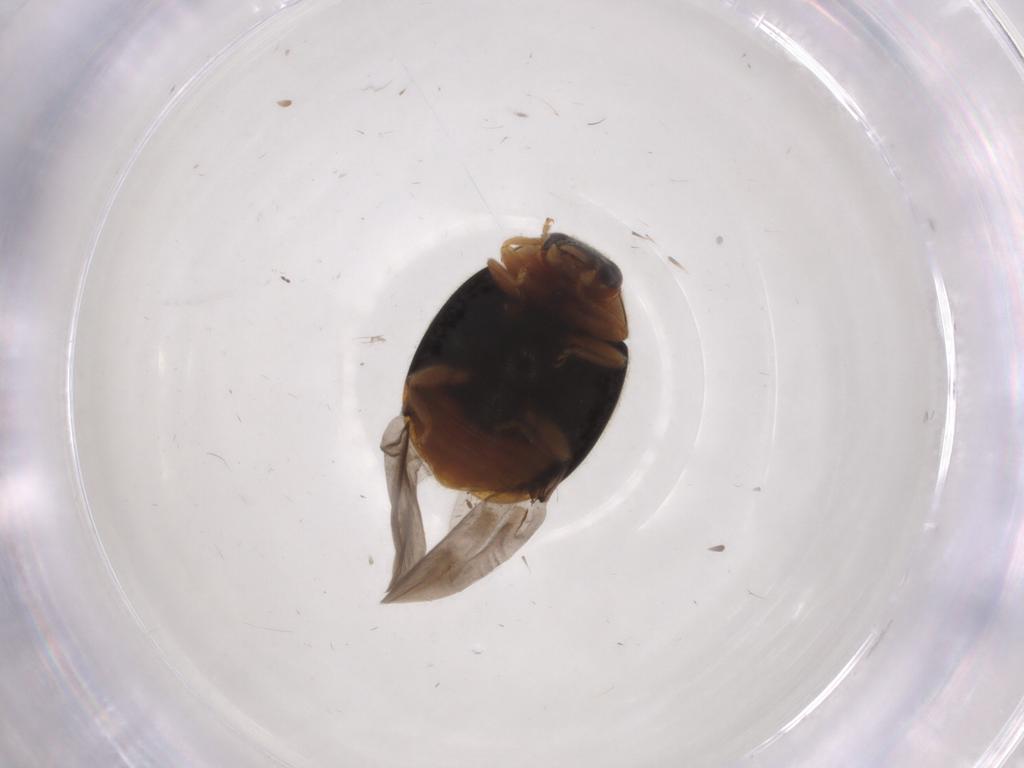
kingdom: Animalia
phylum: Arthropoda
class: Insecta
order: Coleoptera
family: Coccinellidae
